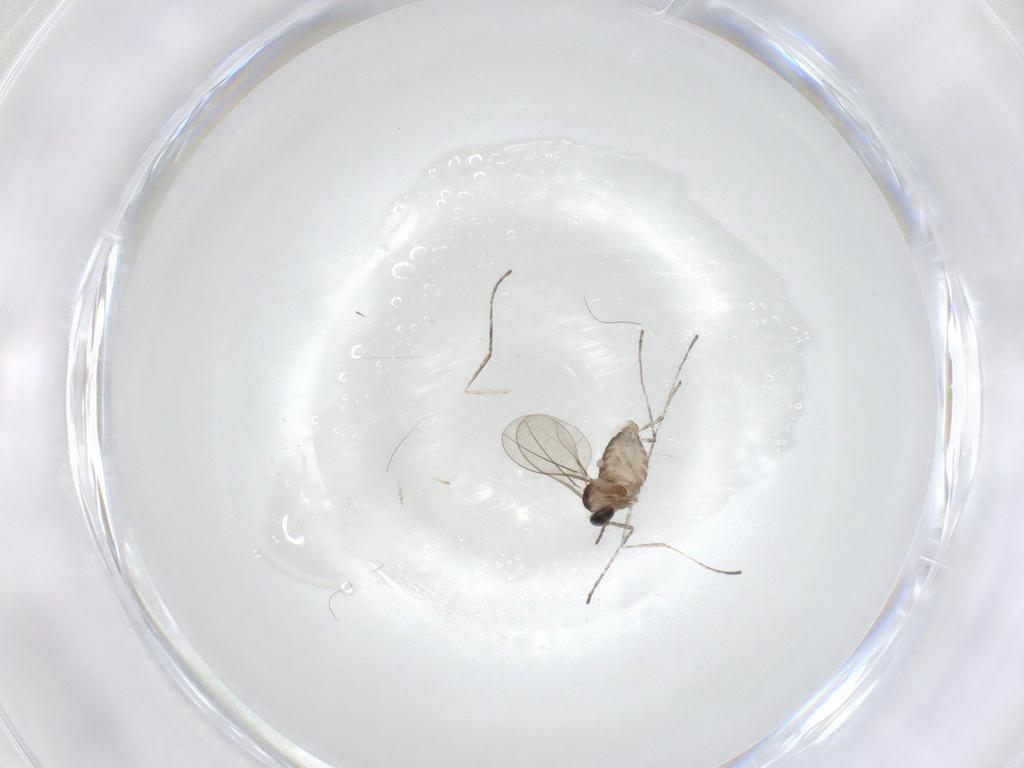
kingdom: Animalia
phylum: Arthropoda
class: Insecta
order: Diptera
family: Cecidomyiidae
